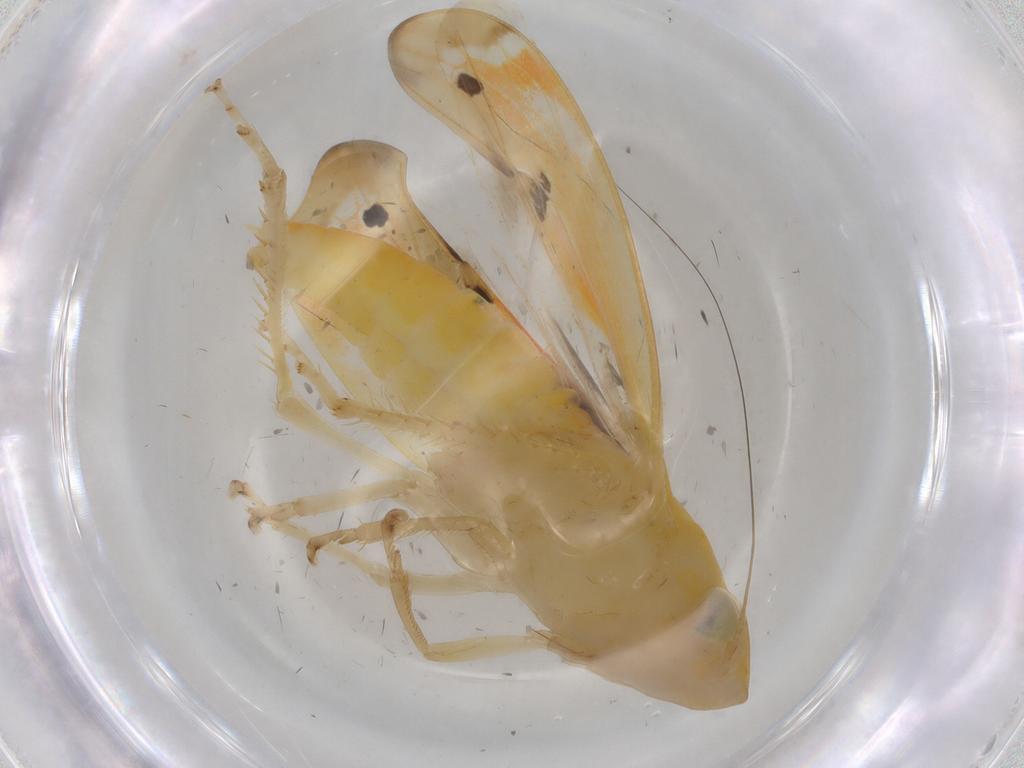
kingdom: Animalia
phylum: Arthropoda
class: Insecta
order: Hemiptera
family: Cicadellidae
